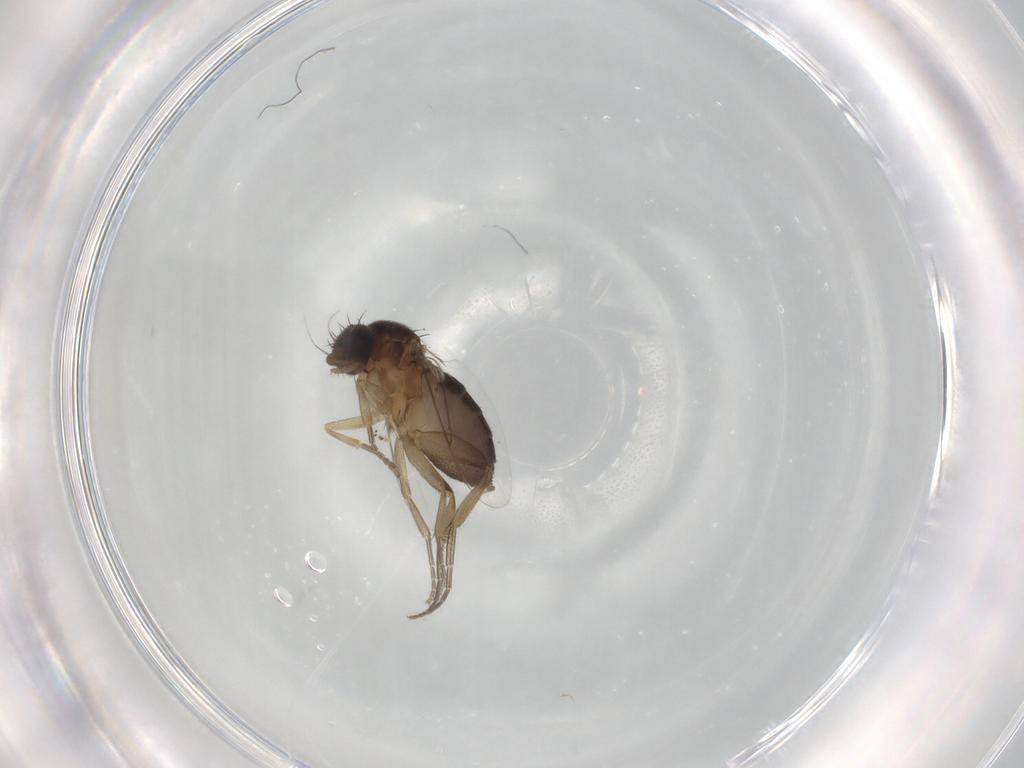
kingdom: Animalia
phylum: Arthropoda
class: Insecta
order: Diptera
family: Phoridae
